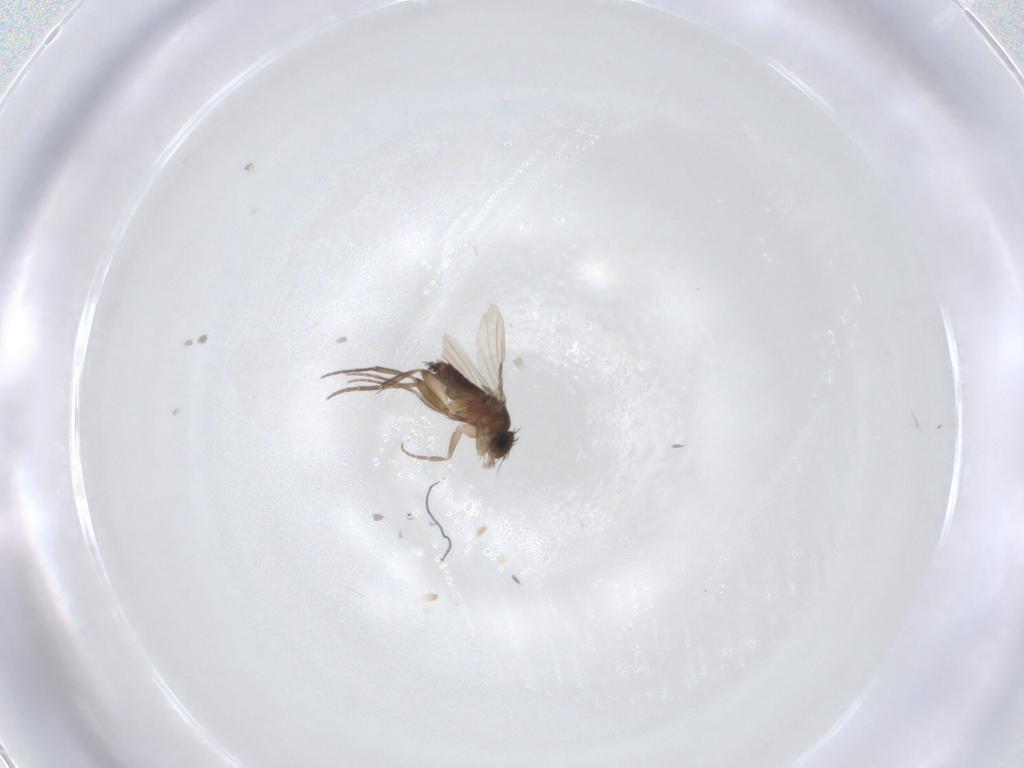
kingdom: Animalia
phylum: Arthropoda
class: Insecta
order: Diptera
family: Phoridae
